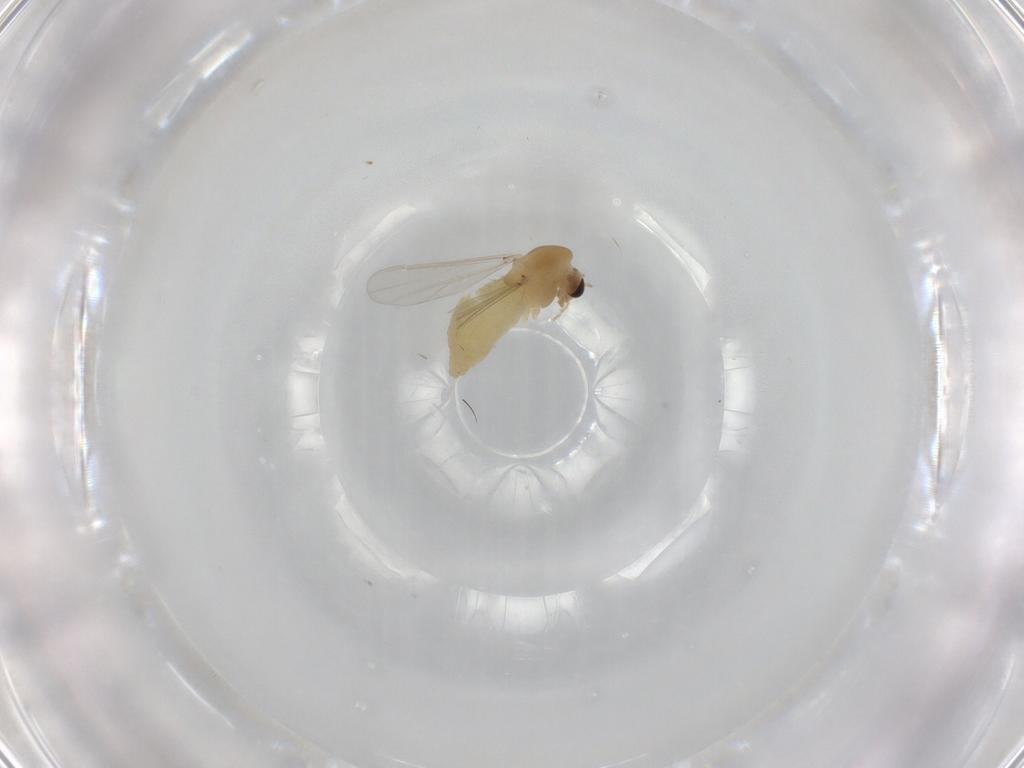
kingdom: Animalia
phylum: Arthropoda
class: Insecta
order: Diptera
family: Chironomidae
